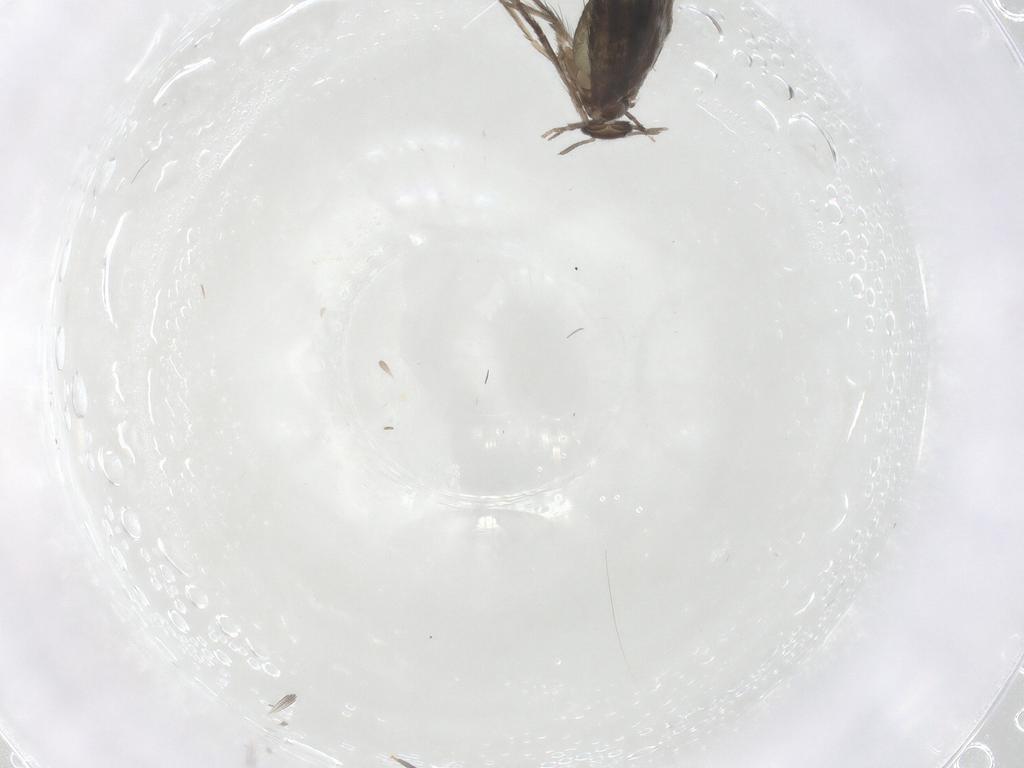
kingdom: Animalia
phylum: Arthropoda
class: Insecta
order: Trichoptera
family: Hydroptilidae
